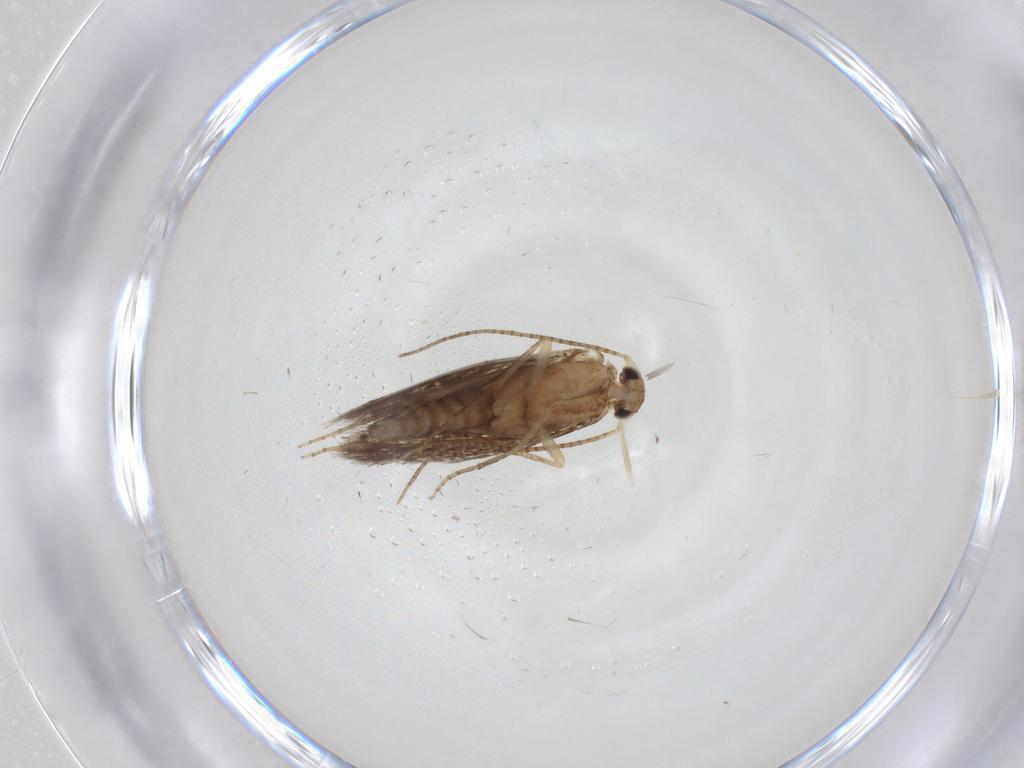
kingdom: Animalia
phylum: Arthropoda
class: Insecta
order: Lepidoptera
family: Bucculatricidae
